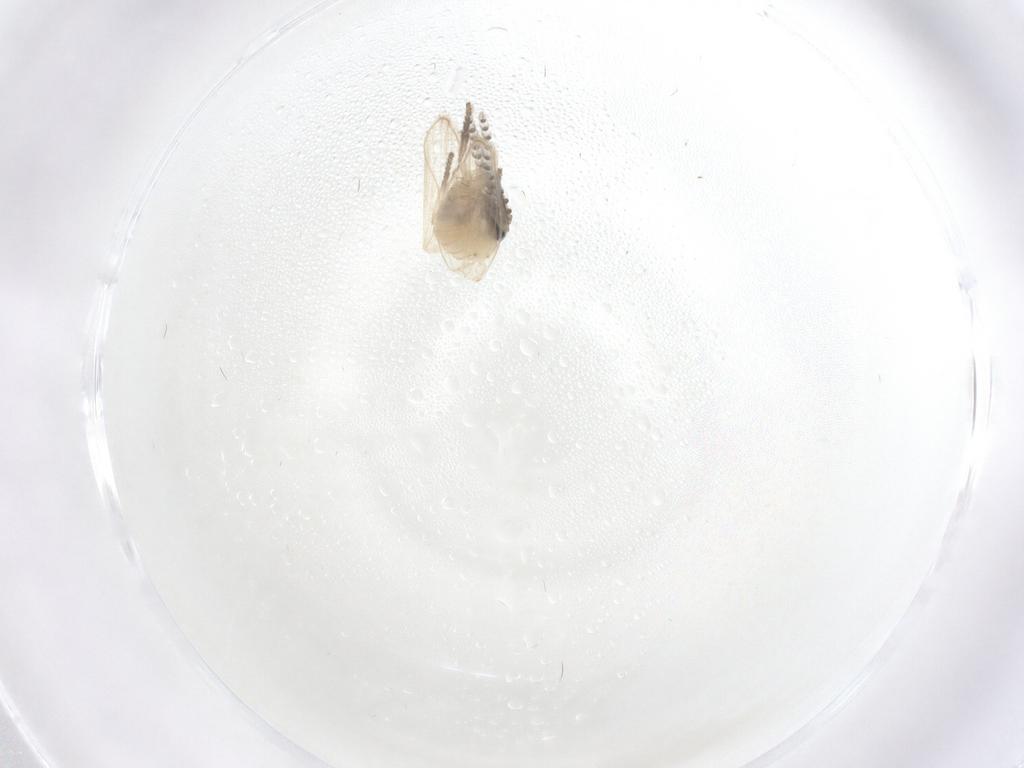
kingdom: Animalia
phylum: Arthropoda
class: Insecta
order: Diptera
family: Psychodidae
